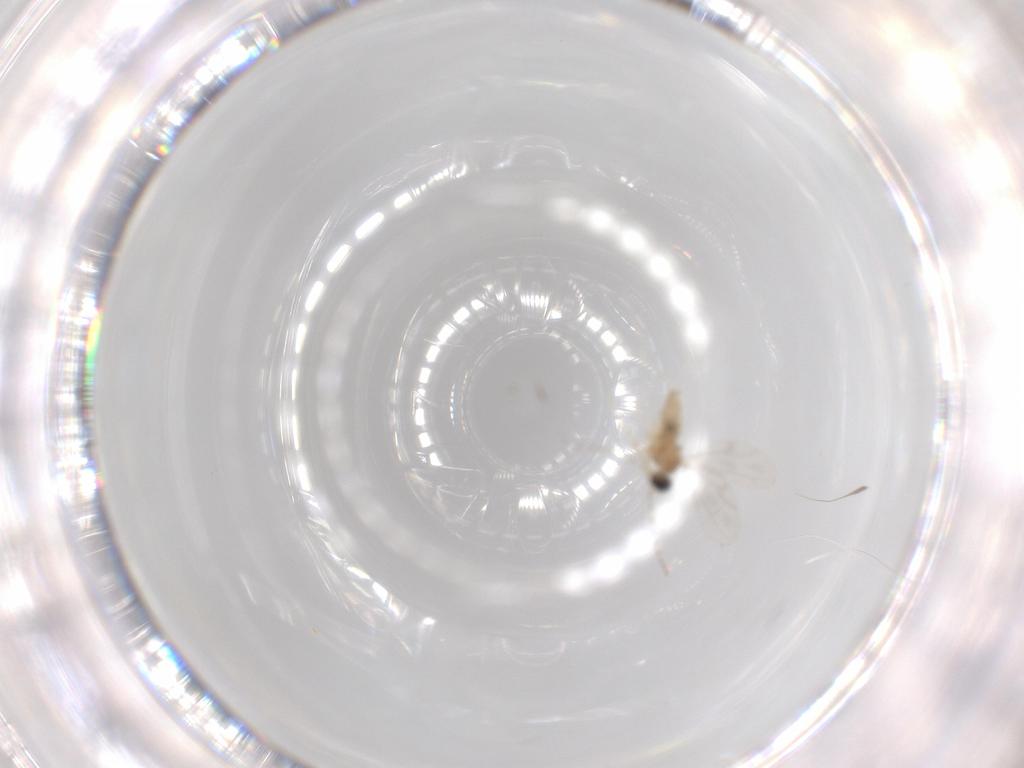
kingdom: Animalia
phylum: Arthropoda
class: Insecta
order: Diptera
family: Cecidomyiidae
